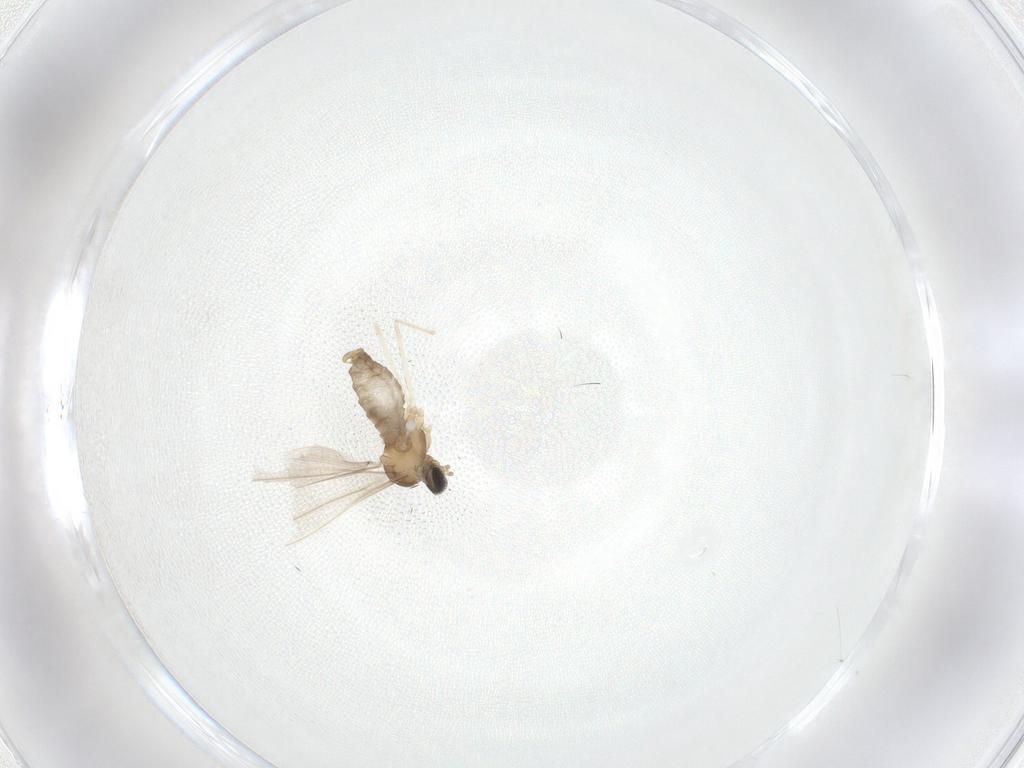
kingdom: Animalia
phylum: Arthropoda
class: Insecta
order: Diptera
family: Cecidomyiidae
